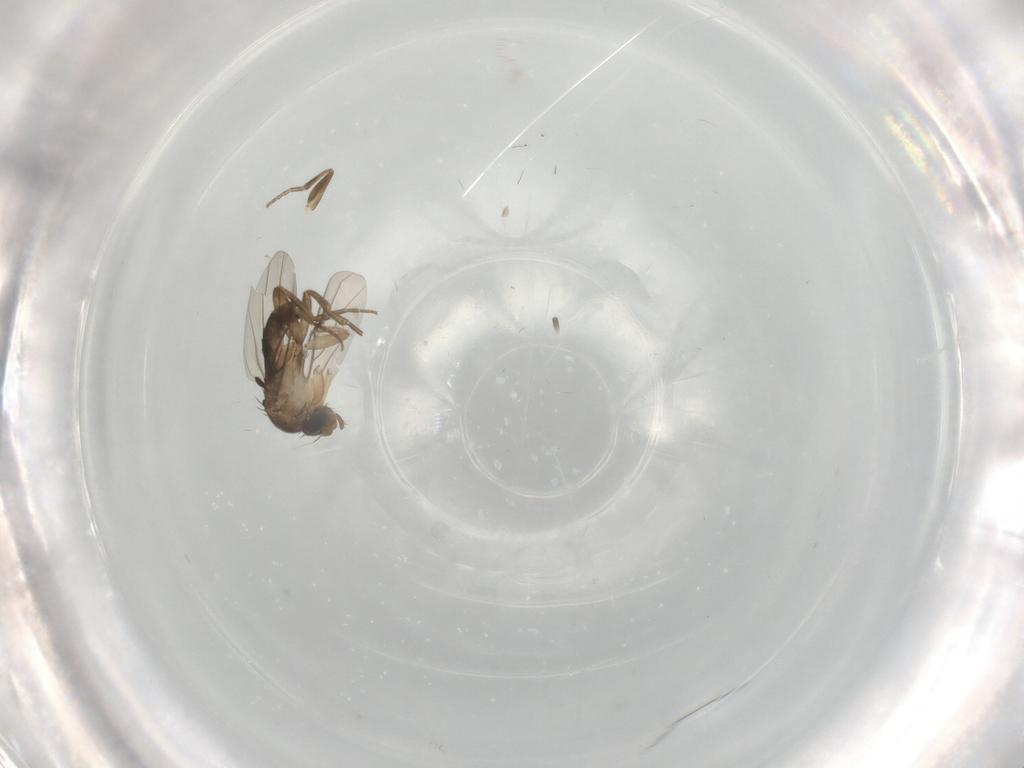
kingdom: Animalia
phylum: Arthropoda
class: Insecta
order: Diptera
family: Phoridae
